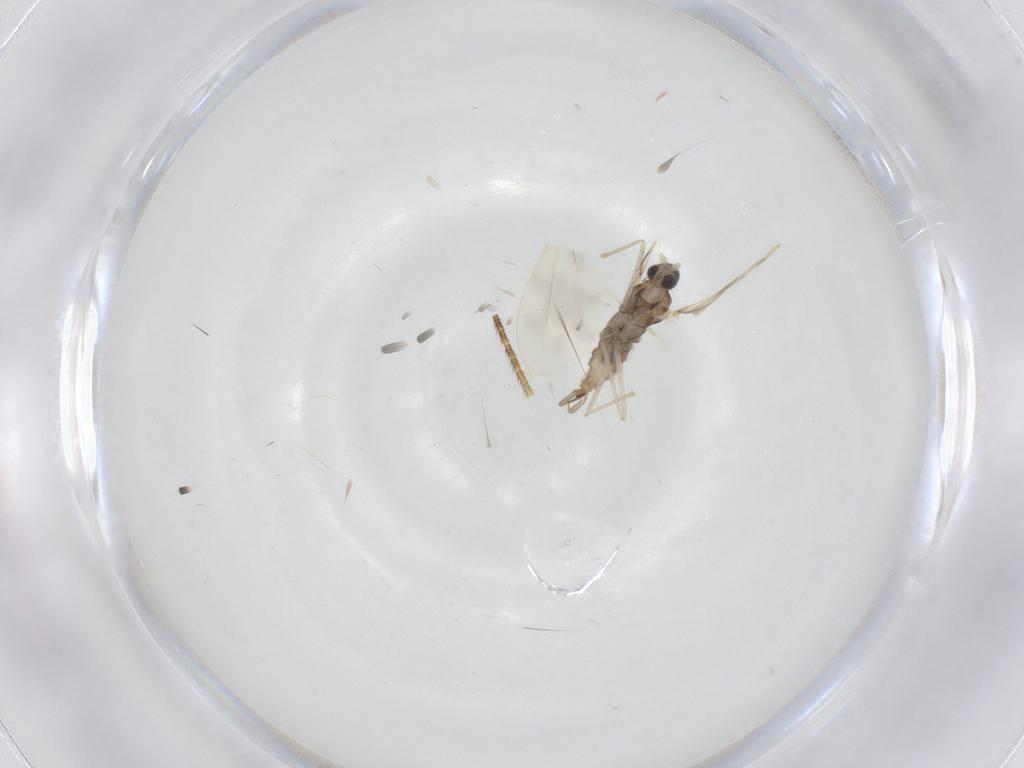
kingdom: Animalia
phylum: Arthropoda
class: Insecta
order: Diptera
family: Cecidomyiidae
